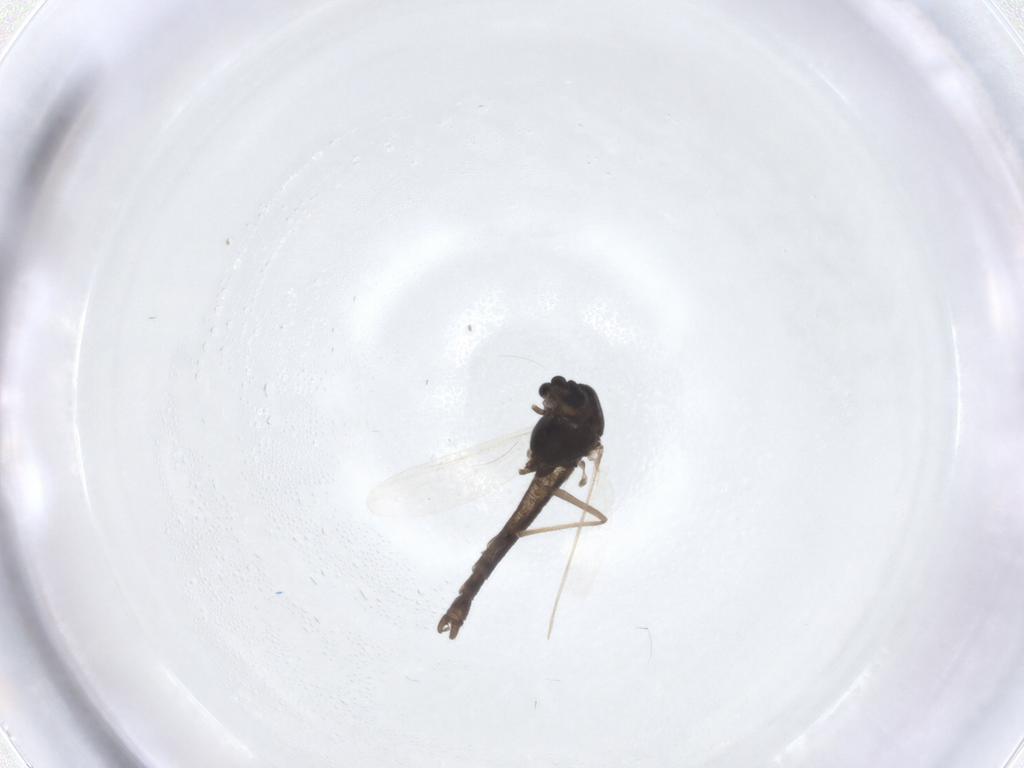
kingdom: Animalia
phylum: Arthropoda
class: Insecta
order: Diptera
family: Chironomidae
